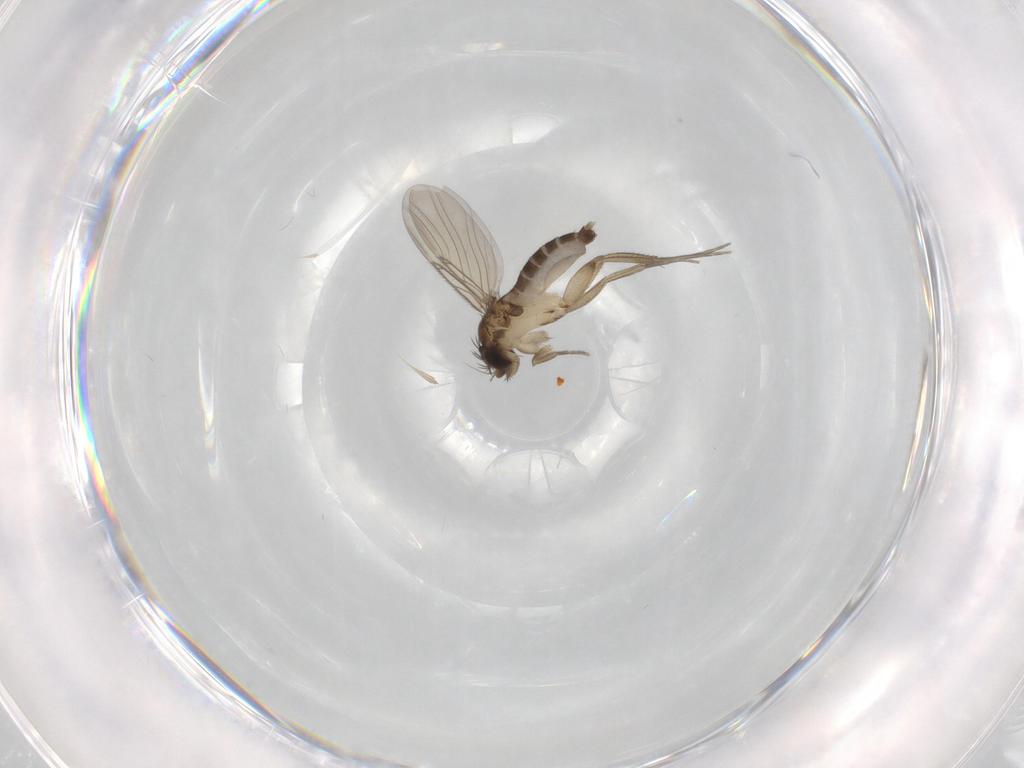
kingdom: Animalia
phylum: Arthropoda
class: Insecta
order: Diptera
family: Phoridae
